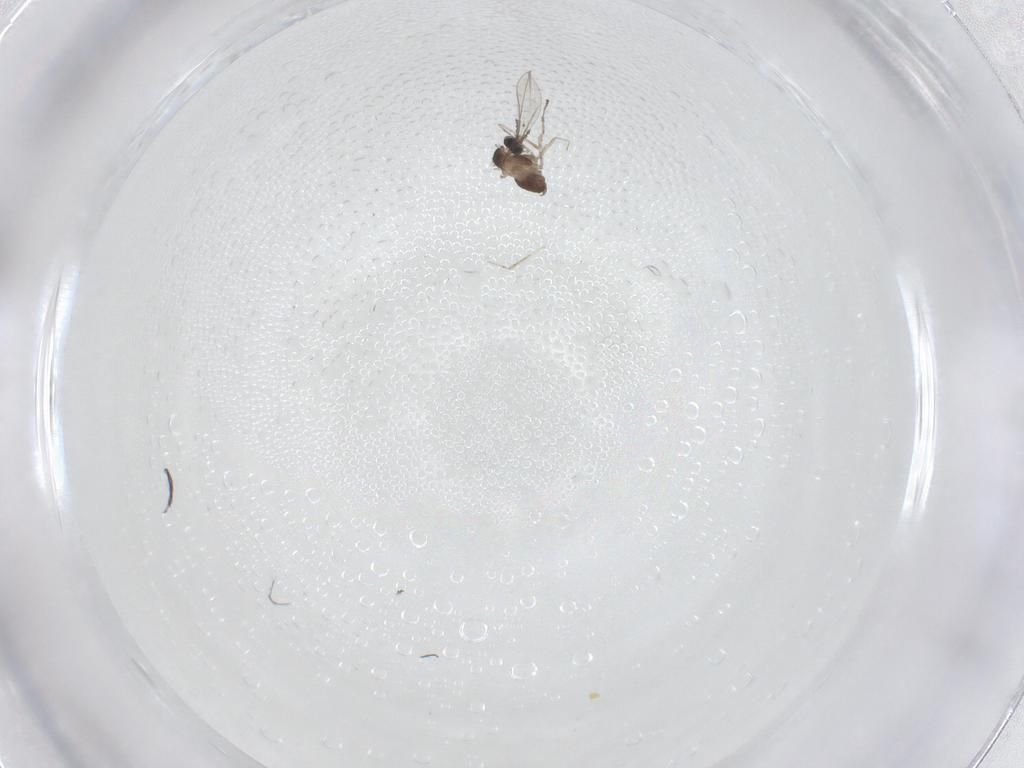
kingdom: Animalia
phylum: Arthropoda
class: Insecta
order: Diptera
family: Cecidomyiidae
